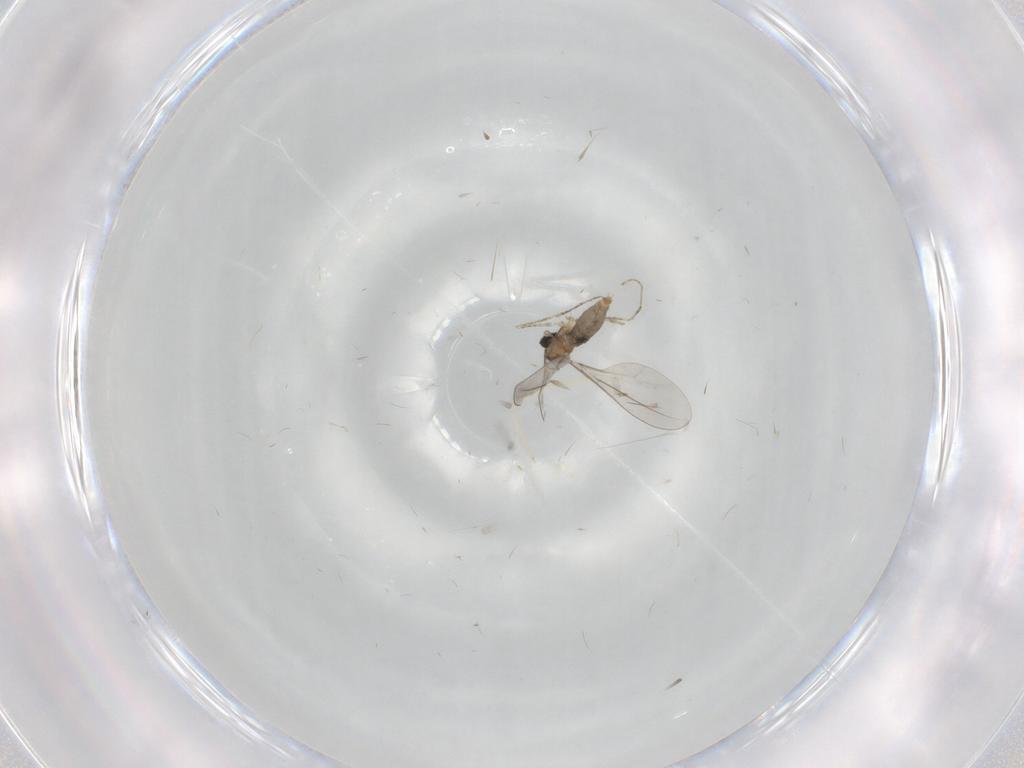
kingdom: Animalia
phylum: Arthropoda
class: Insecta
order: Diptera
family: Cecidomyiidae
